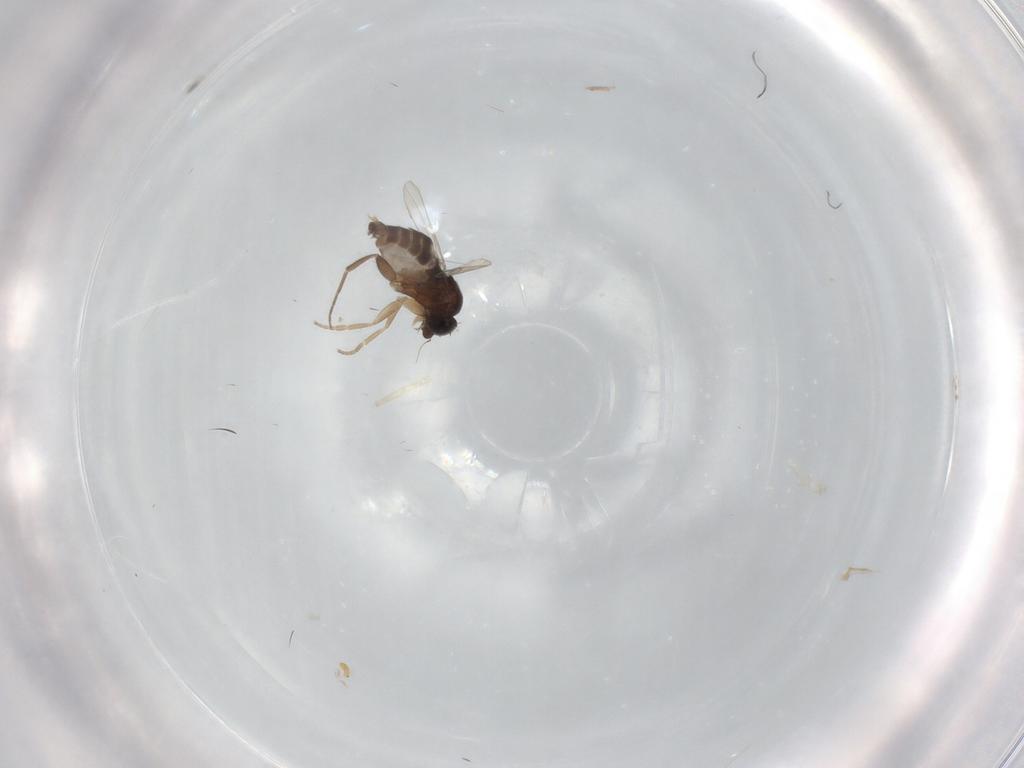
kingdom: Animalia
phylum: Arthropoda
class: Insecta
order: Diptera
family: Phoridae
